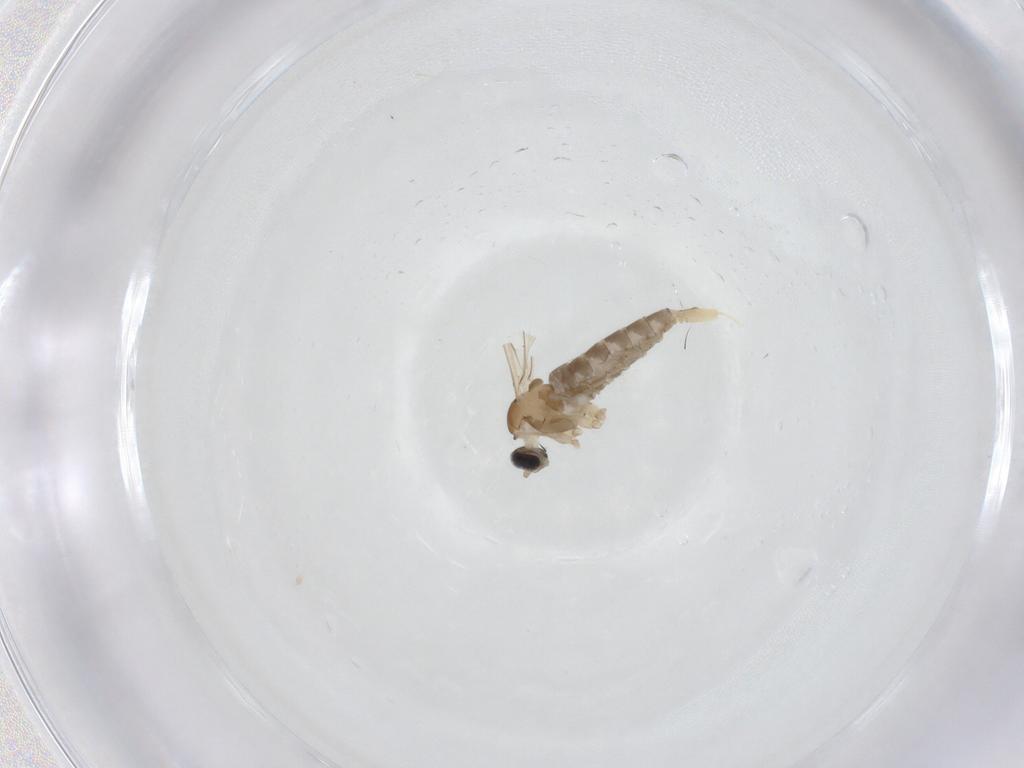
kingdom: Animalia
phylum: Arthropoda
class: Insecta
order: Diptera
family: Cecidomyiidae
